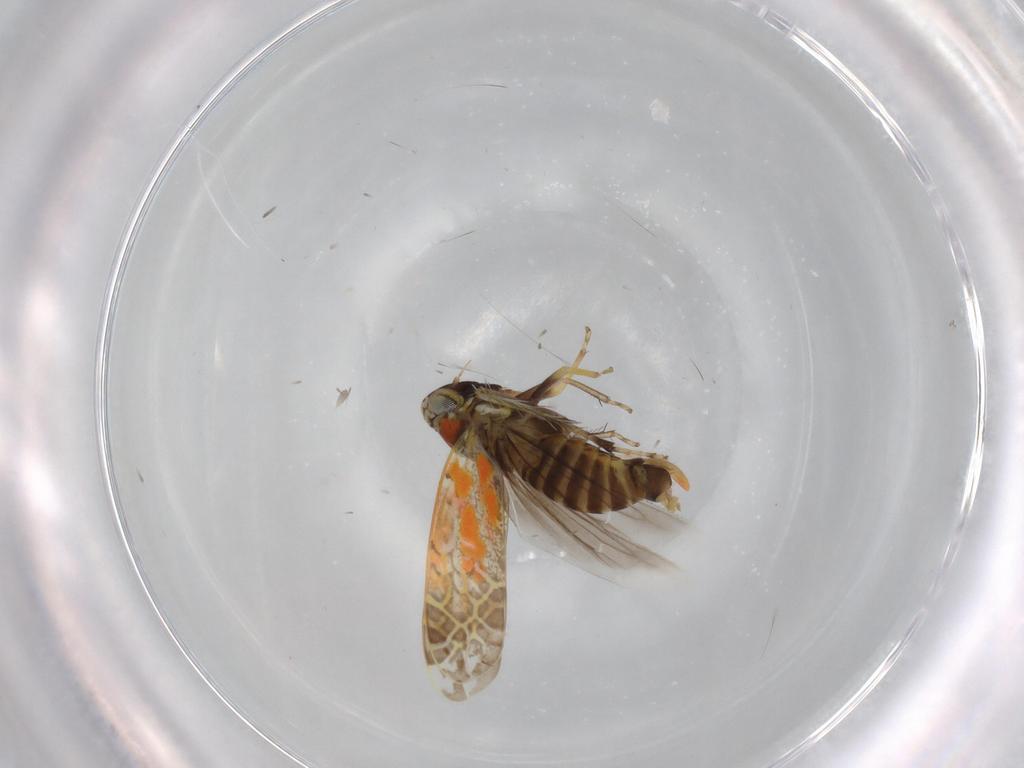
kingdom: Animalia
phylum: Arthropoda
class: Insecta
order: Hemiptera
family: Cicadellidae
